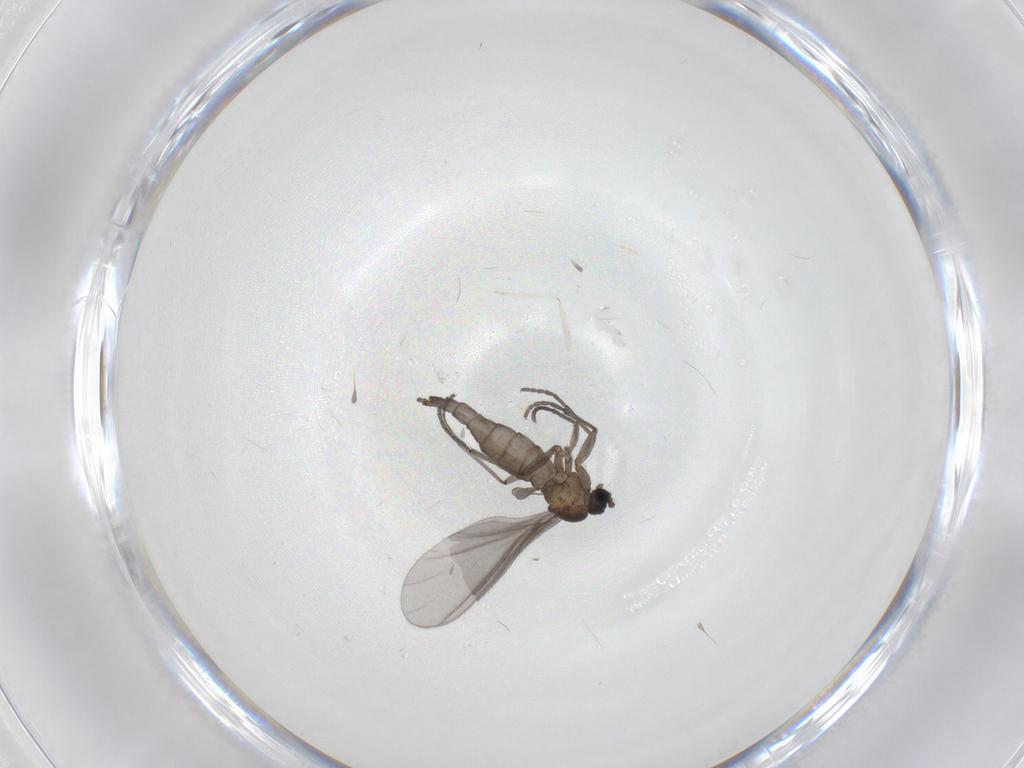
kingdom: Animalia
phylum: Arthropoda
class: Insecta
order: Diptera
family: Sciaridae
